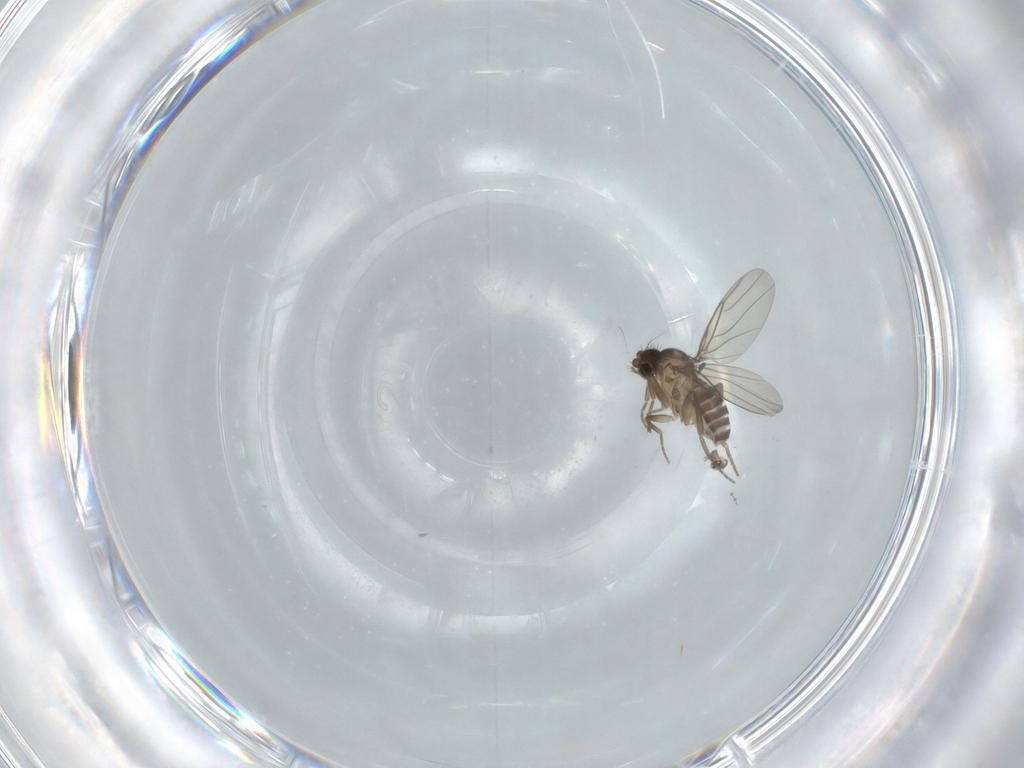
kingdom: Animalia
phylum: Arthropoda
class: Insecta
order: Diptera
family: Phoridae
